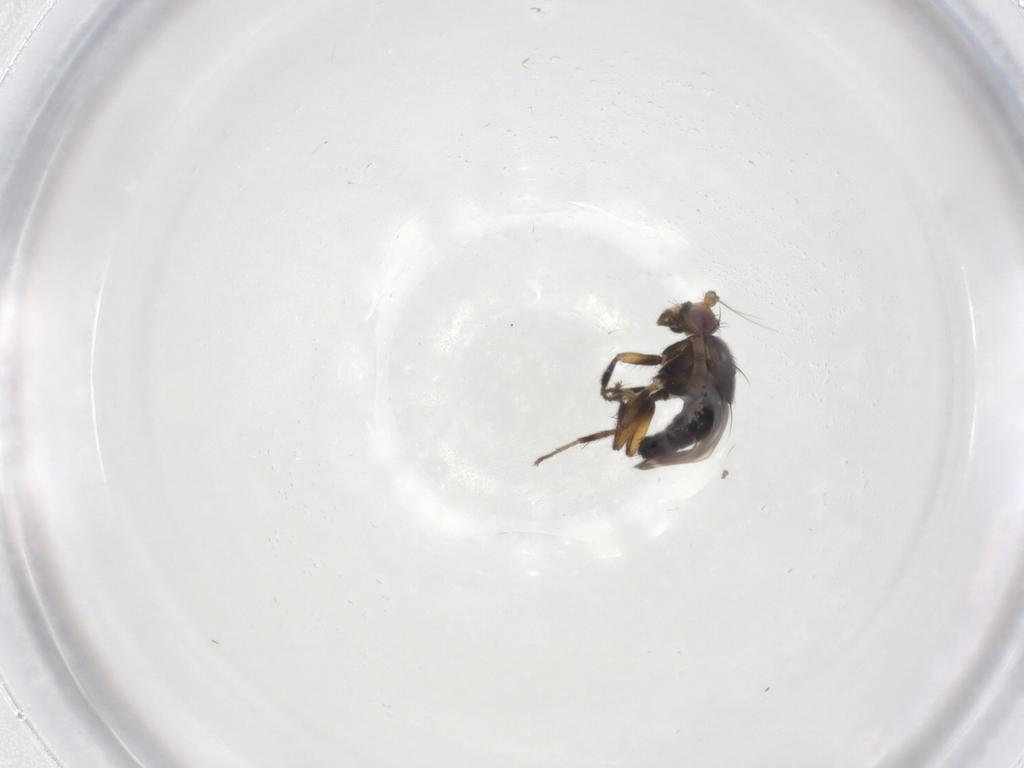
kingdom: Animalia
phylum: Arthropoda
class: Insecta
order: Diptera
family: Sphaeroceridae
